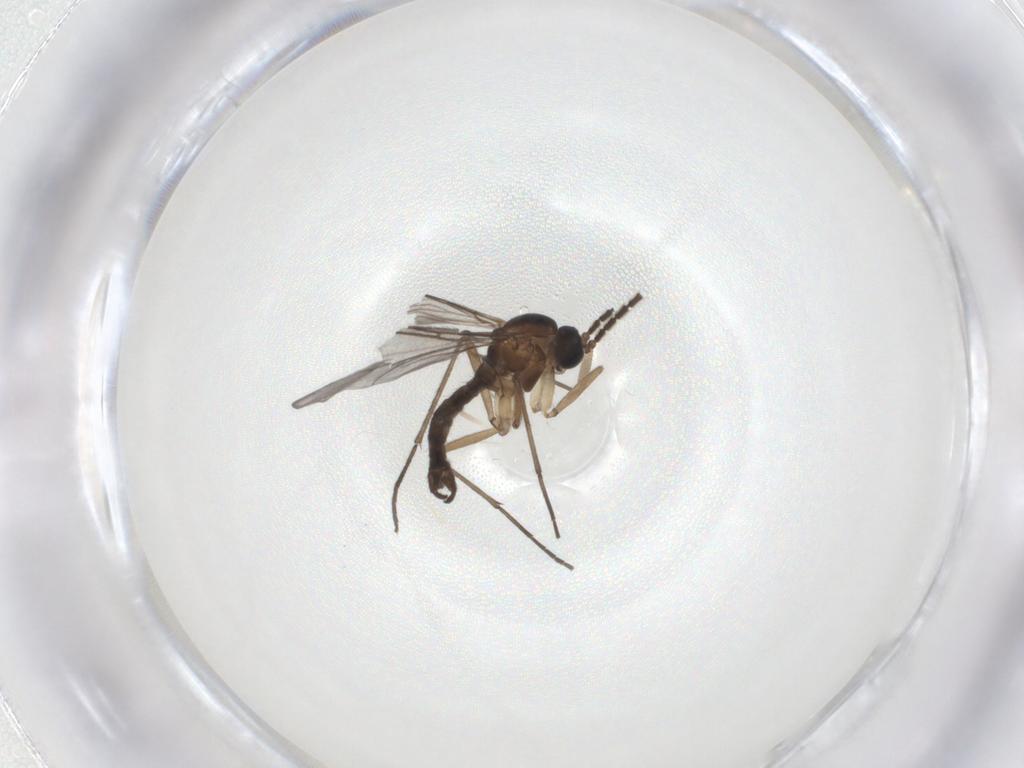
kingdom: Animalia
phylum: Arthropoda
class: Insecta
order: Diptera
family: Sciaridae
